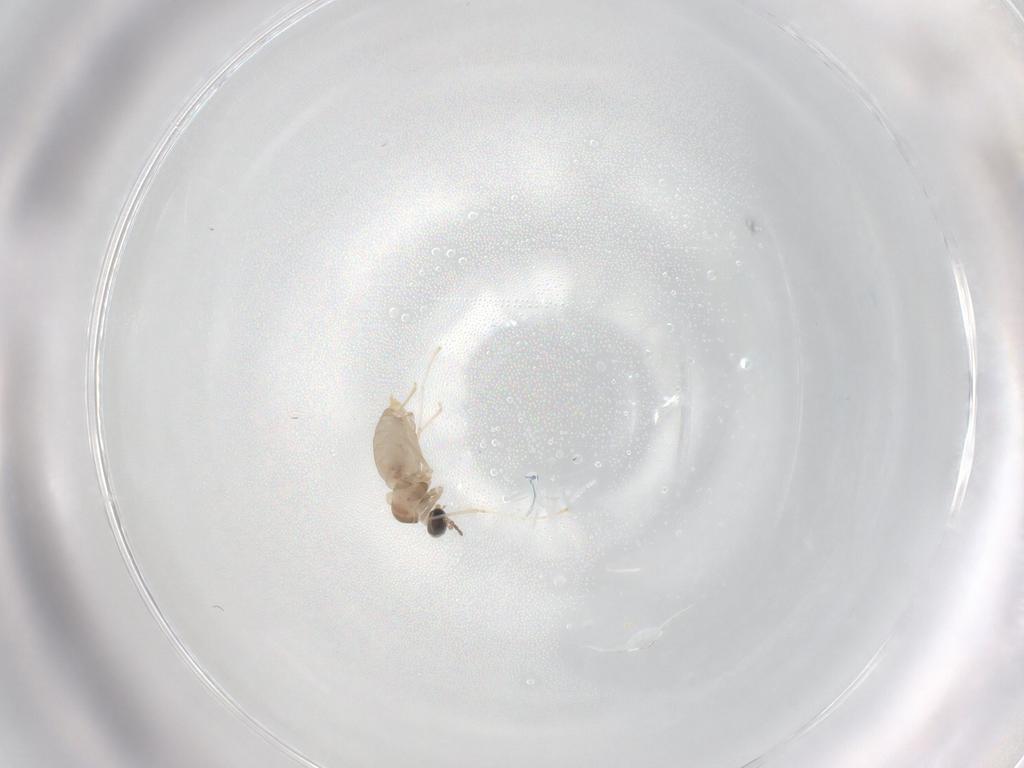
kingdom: Animalia
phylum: Arthropoda
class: Insecta
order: Diptera
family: Cecidomyiidae
